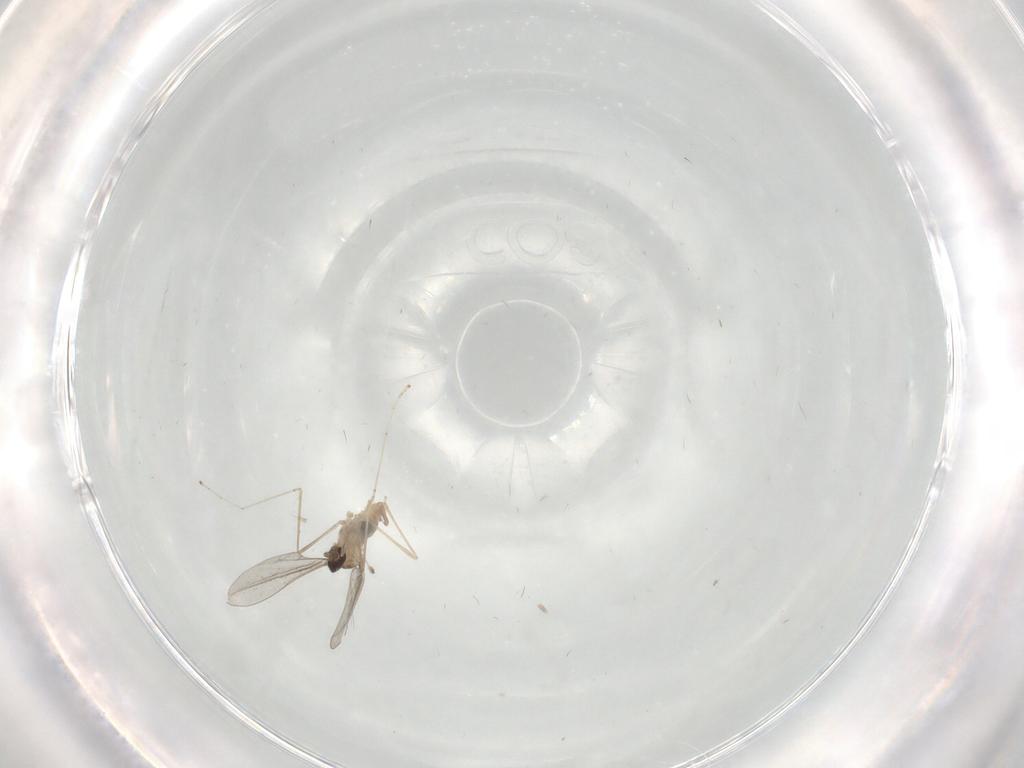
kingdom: Animalia
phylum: Arthropoda
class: Insecta
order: Diptera
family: Cecidomyiidae
